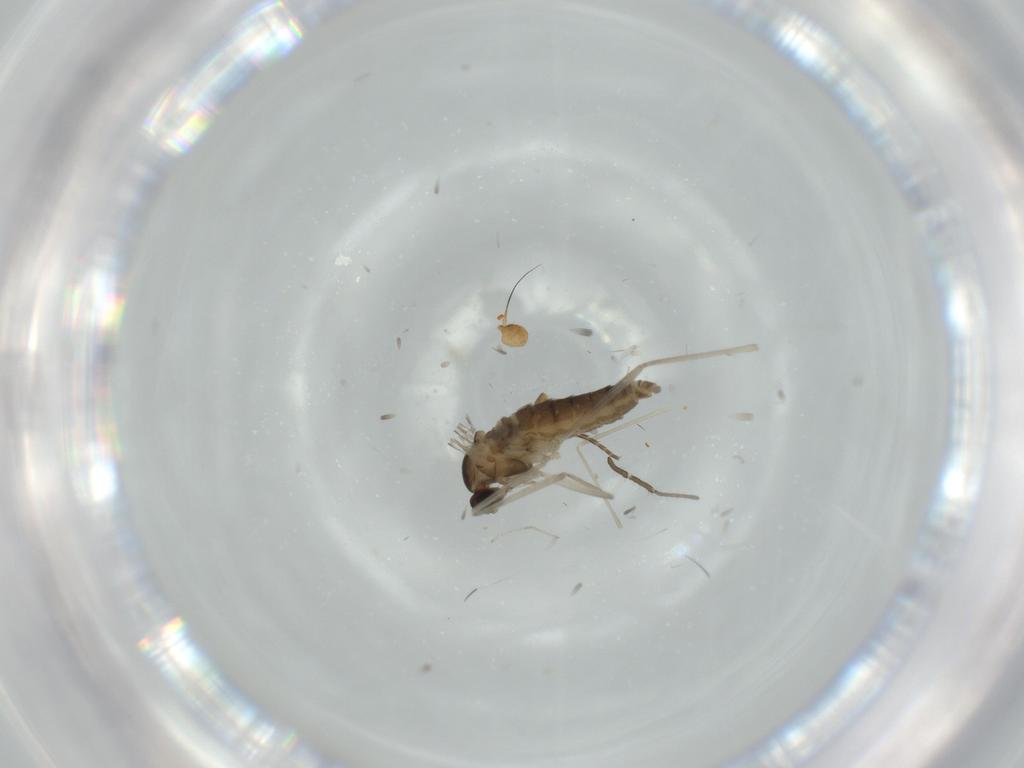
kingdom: Animalia
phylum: Arthropoda
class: Insecta
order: Diptera
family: Cecidomyiidae
